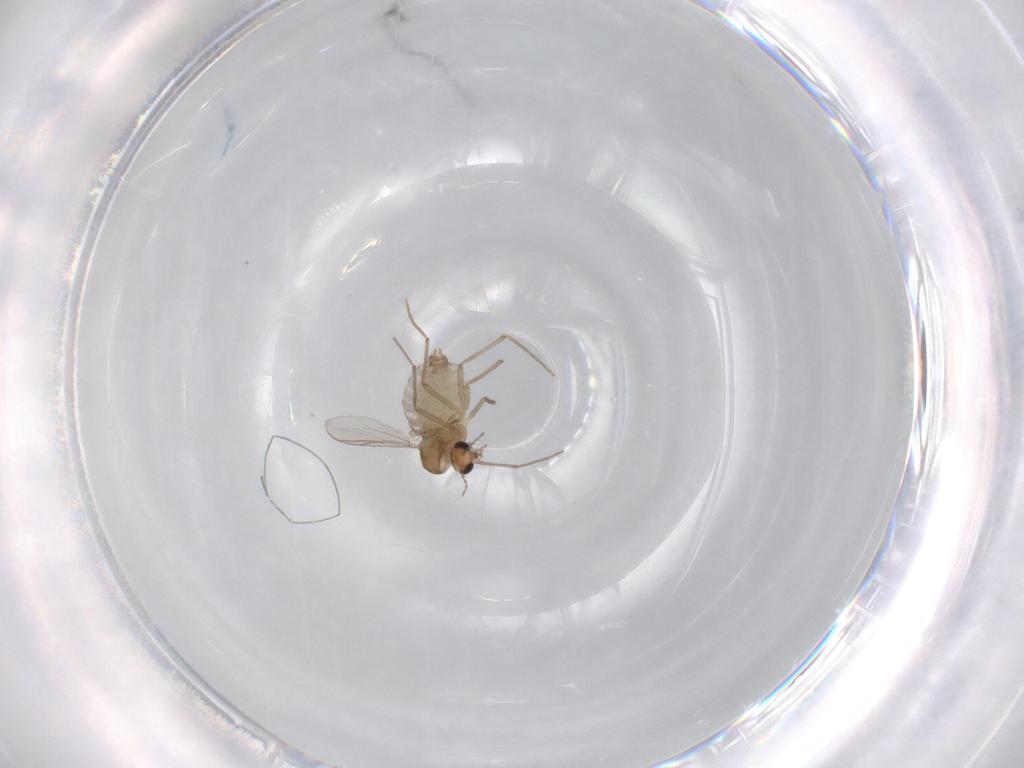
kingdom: Animalia
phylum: Arthropoda
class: Insecta
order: Diptera
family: Chironomidae
